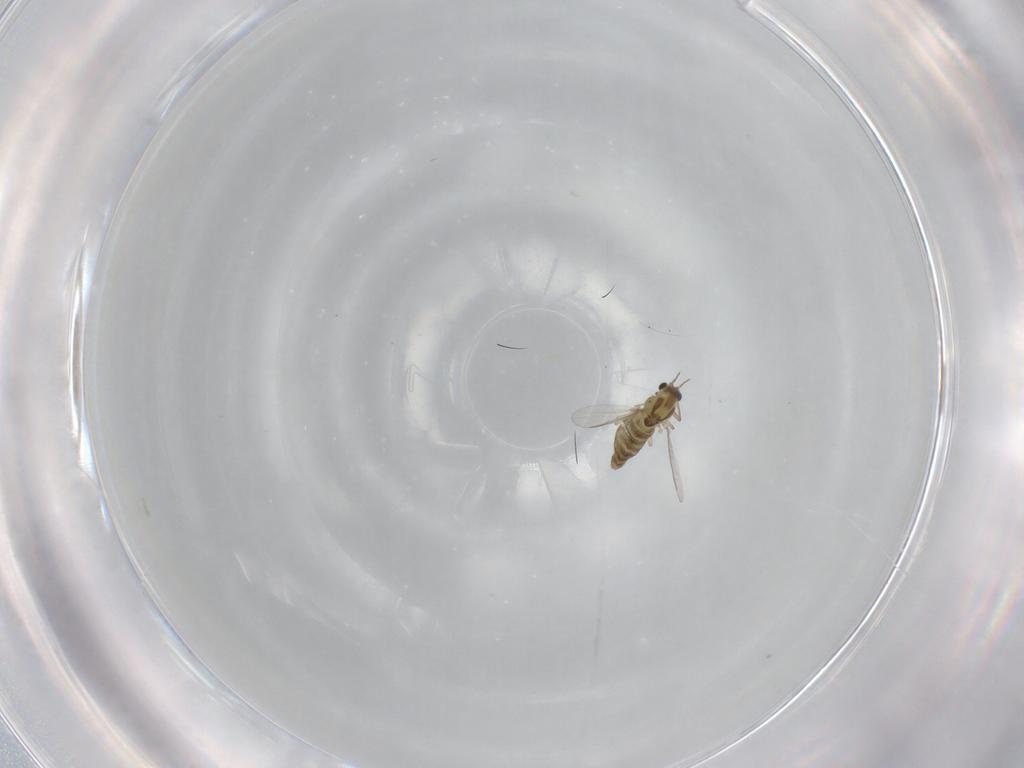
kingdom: Animalia
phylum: Arthropoda
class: Insecta
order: Diptera
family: Chironomidae
